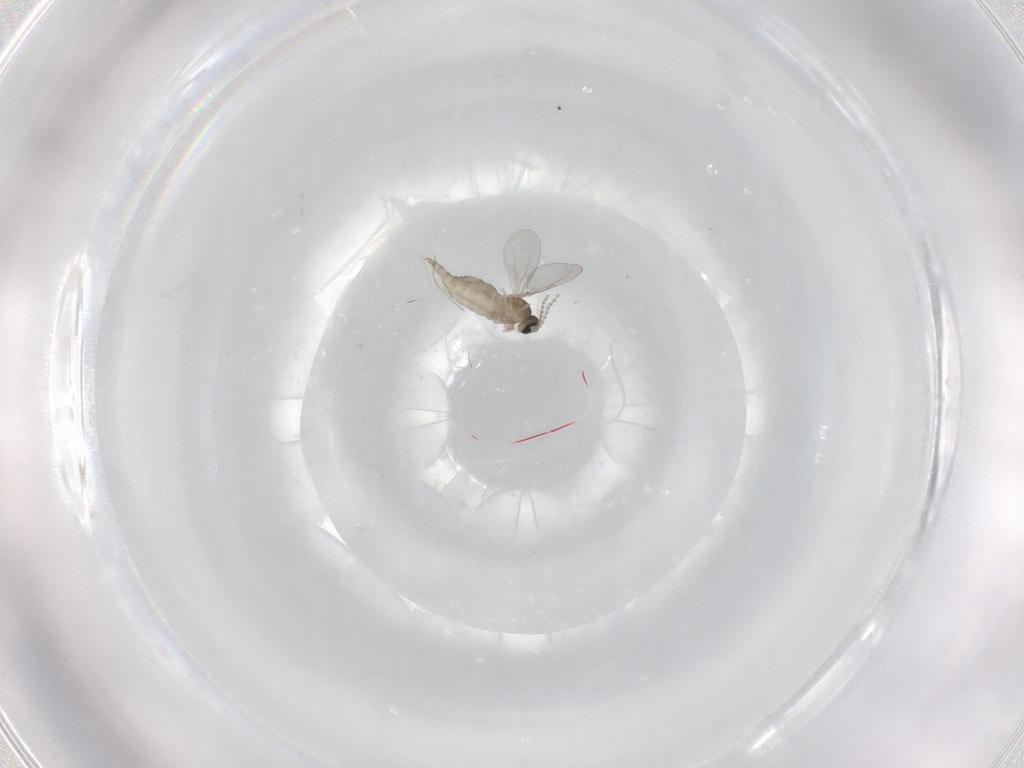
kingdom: Animalia
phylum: Arthropoda
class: Insecta
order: Diptera
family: Cecidomyiidae
